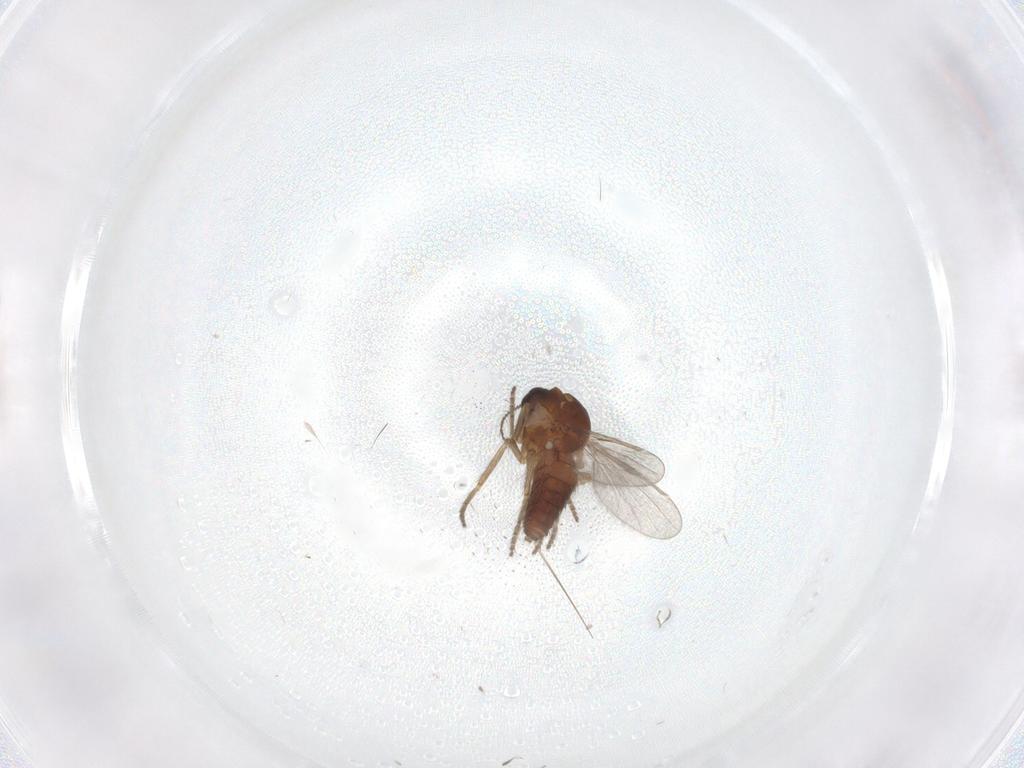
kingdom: Animalia
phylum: Arthropoda
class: Insecta
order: Diptera
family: Ceratopogonidae
